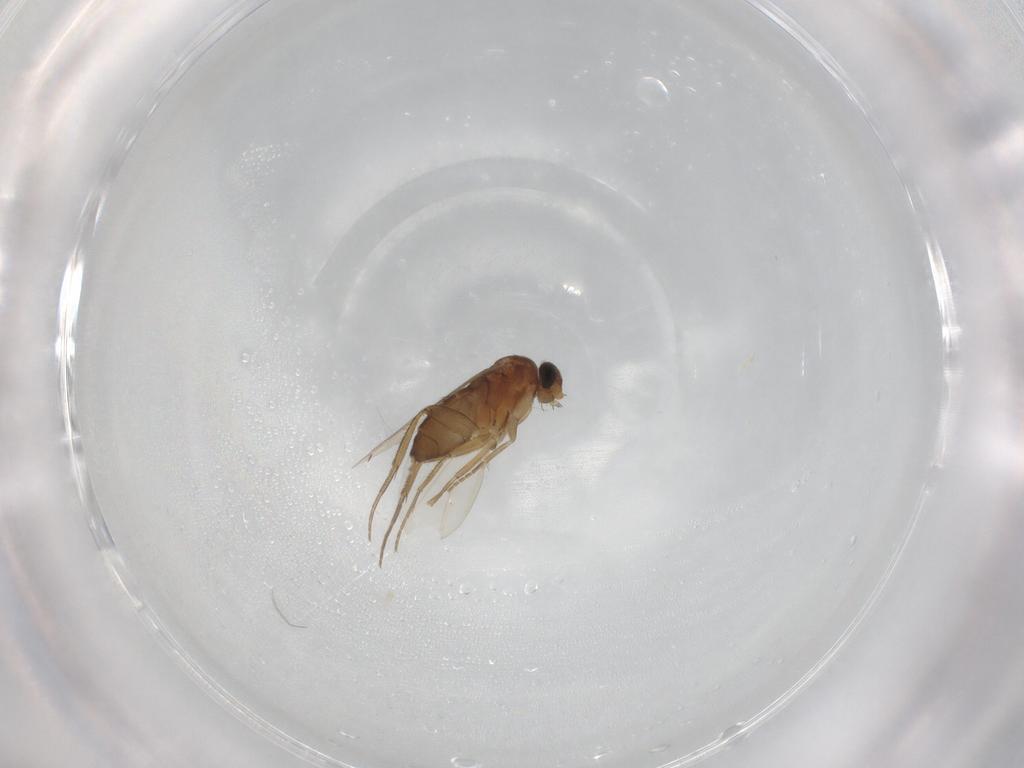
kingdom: Animalia
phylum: Arthropoda
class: Insecta
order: Diptera
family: Phoridae
